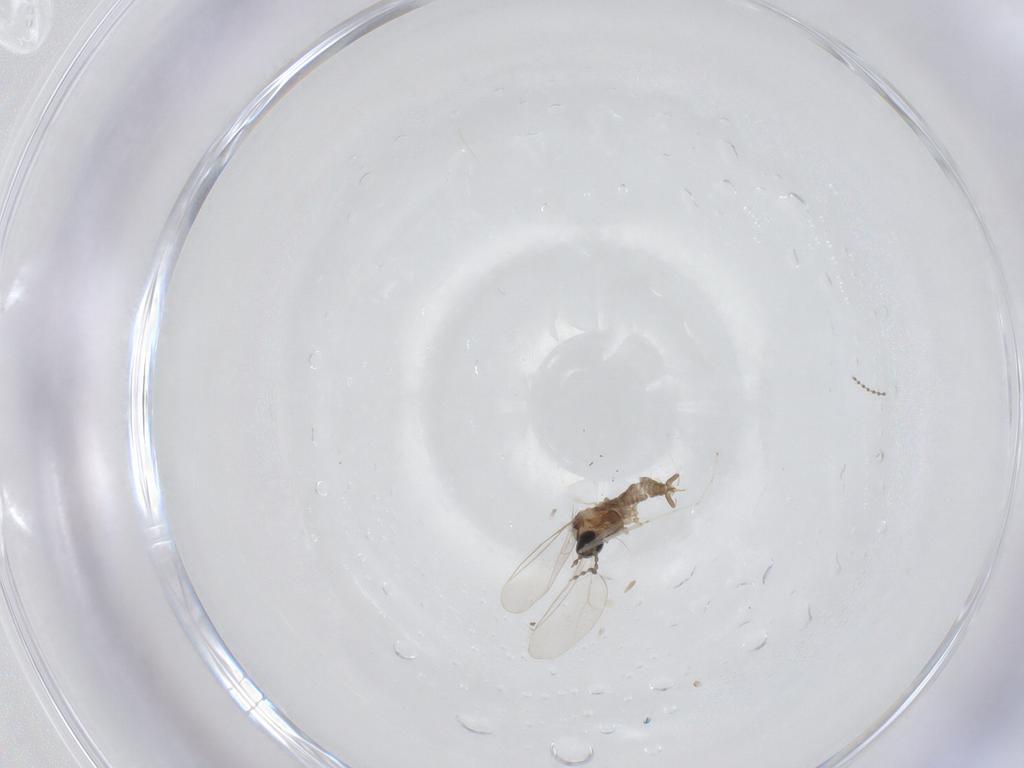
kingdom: Animalia
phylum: Arthropoda
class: Insecta
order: Diptera
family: Cecidomyiidae
